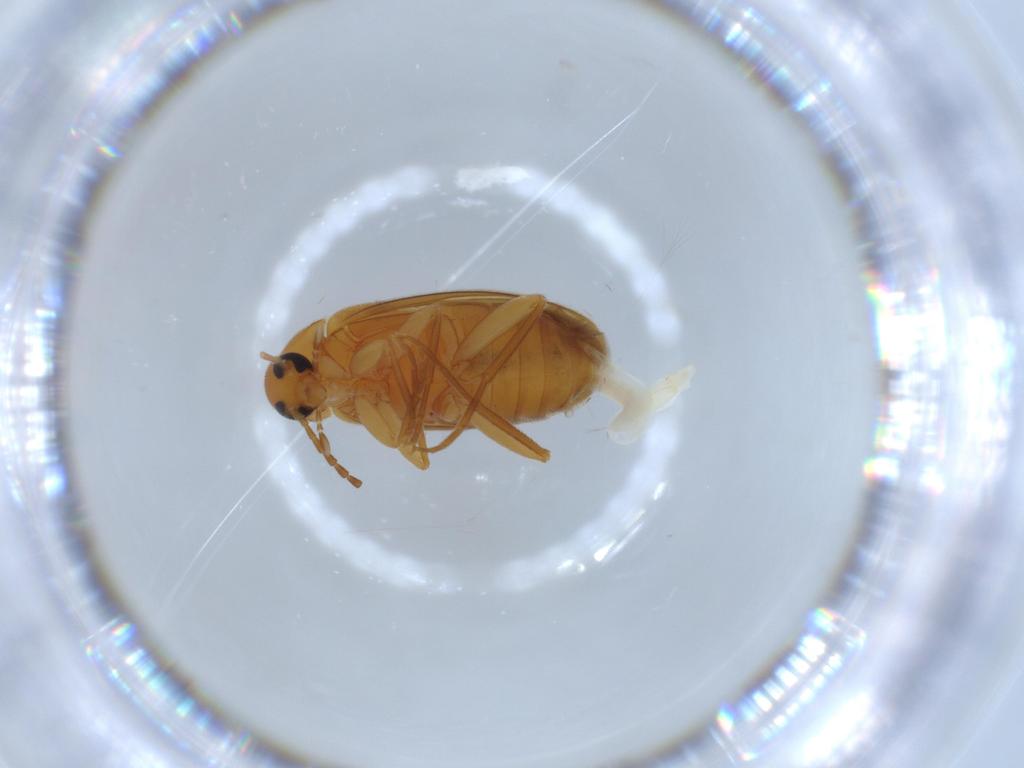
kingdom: Animalia
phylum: Arthropoda
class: Insecta
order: Coleoptera
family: Scraptiidae
